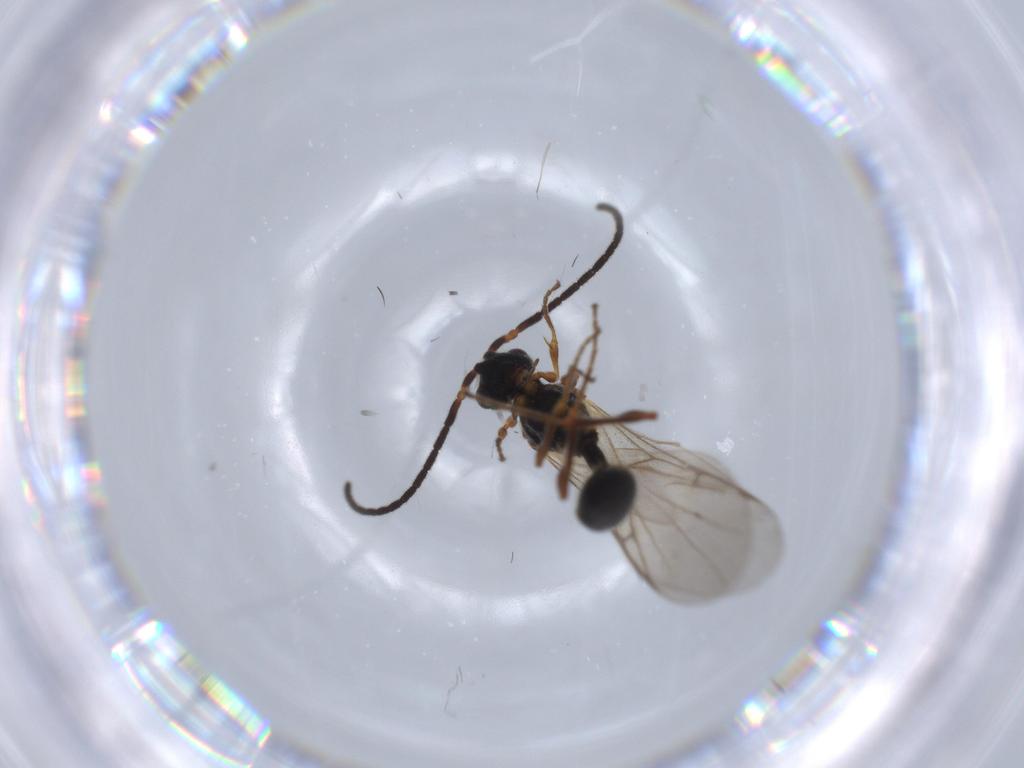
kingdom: Animalia
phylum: Arthropoda
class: Insecta
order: Hymenoptera
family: Diapriidae
